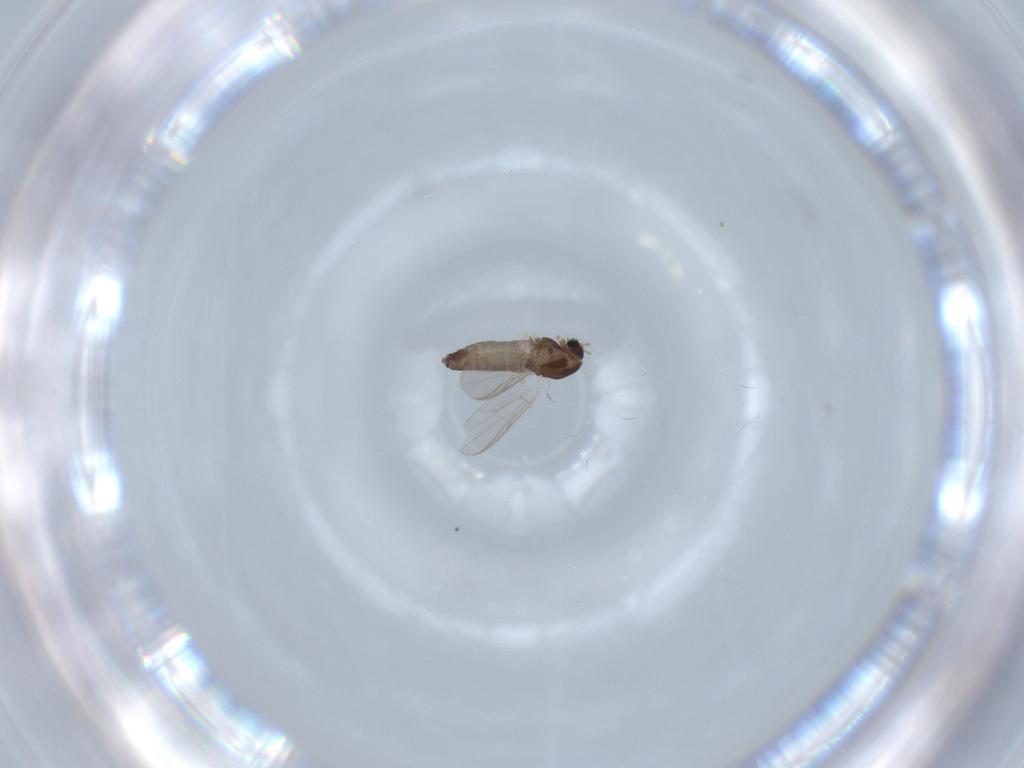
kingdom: Animalia
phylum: Arthropoda
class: Insecta
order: Diptera
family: Chironomidae
